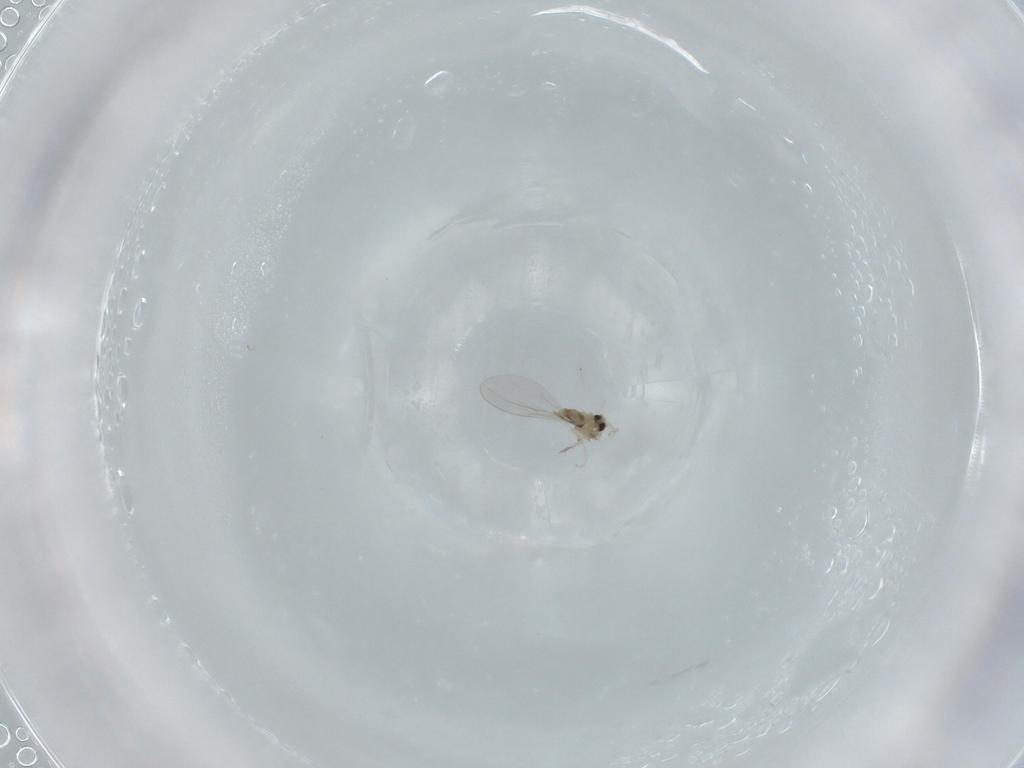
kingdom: Animalia
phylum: Arthropoda
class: Insecta
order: Diptera
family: Cecidomyiidae
